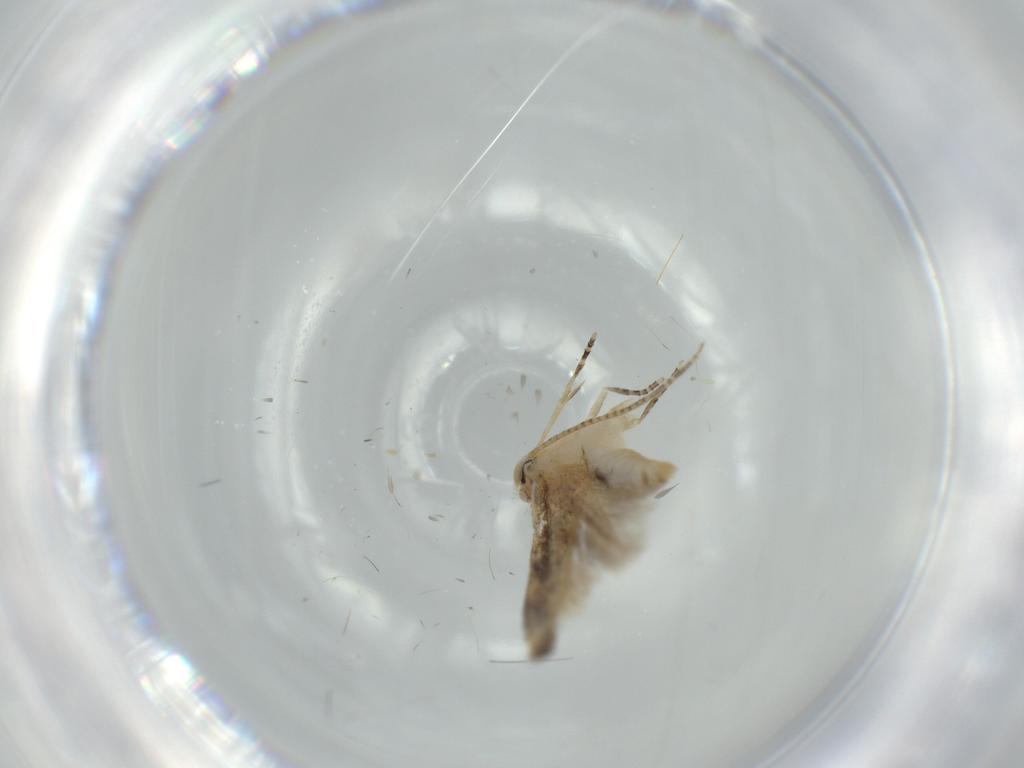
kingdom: Animalia
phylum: Arthropoda
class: Insecta
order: Lepidoptera
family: Bucculatricidae
